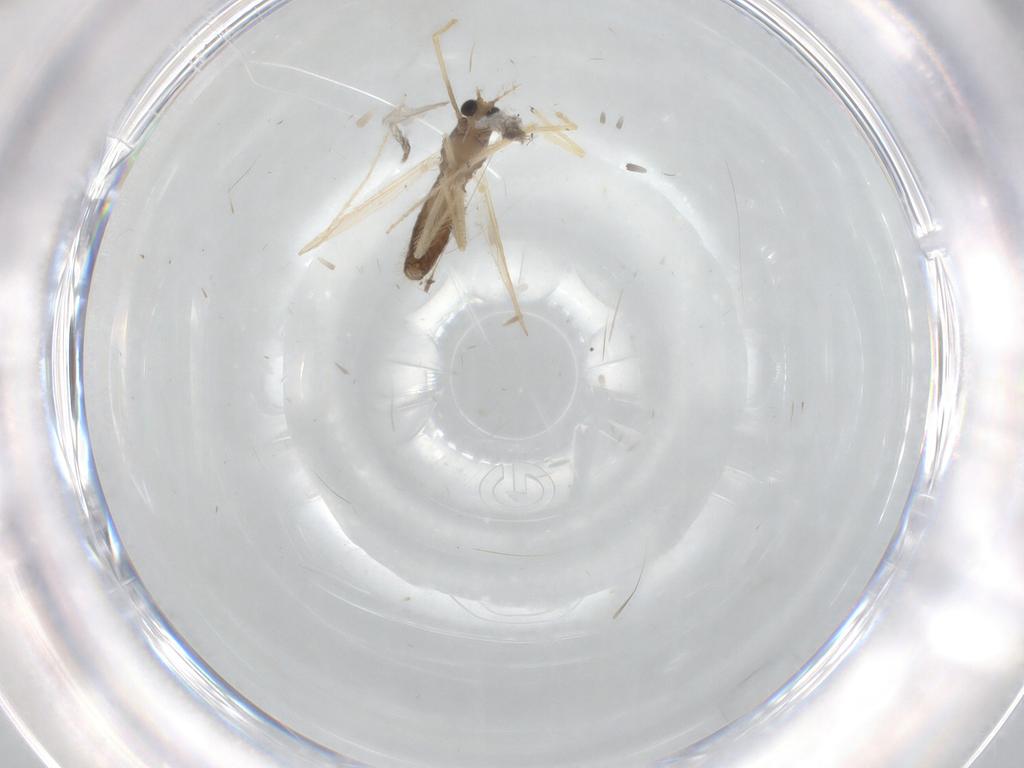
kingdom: Animalia
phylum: Arthropoda
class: Insecta
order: Diptera
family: Chironomidae
